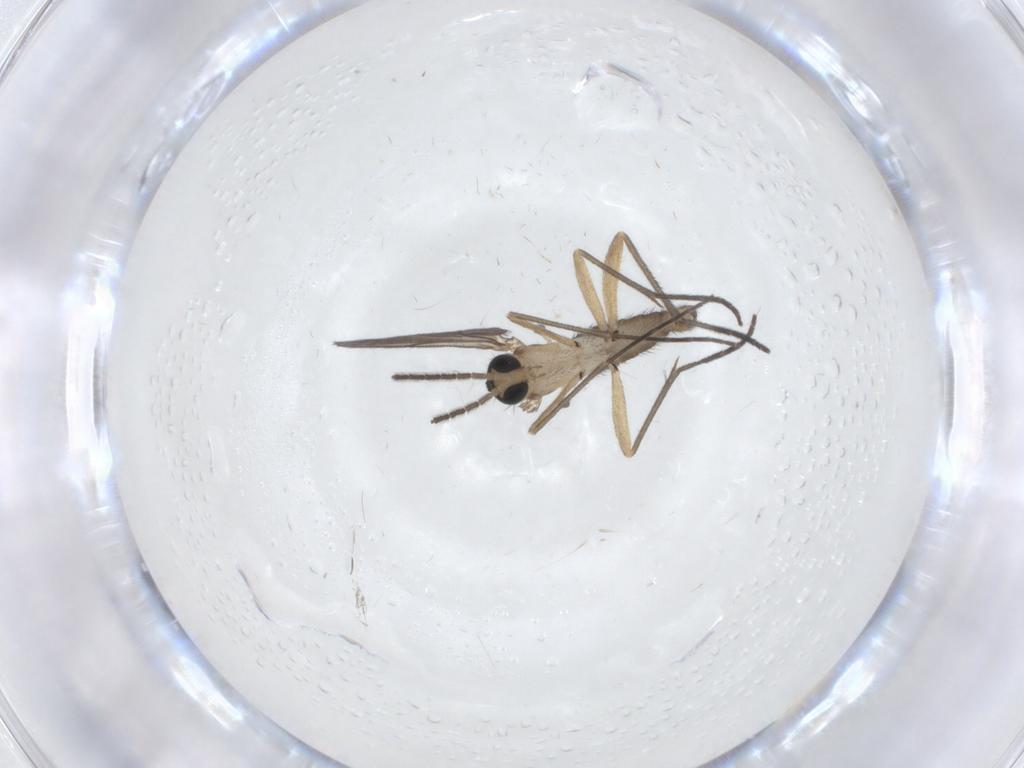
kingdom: Animalia
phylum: Arthropoda
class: Insecta
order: Diptera
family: Sciaridae
